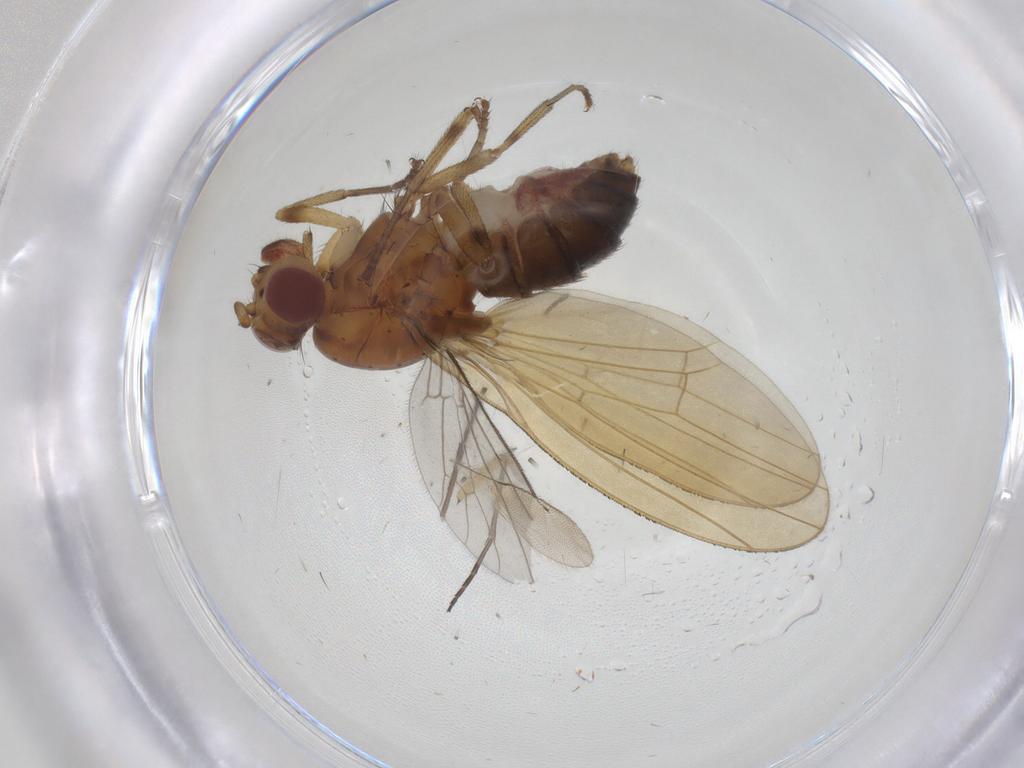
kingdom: Animalia
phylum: Arthropoda
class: Insecta
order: Diptera
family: Sciaridae
